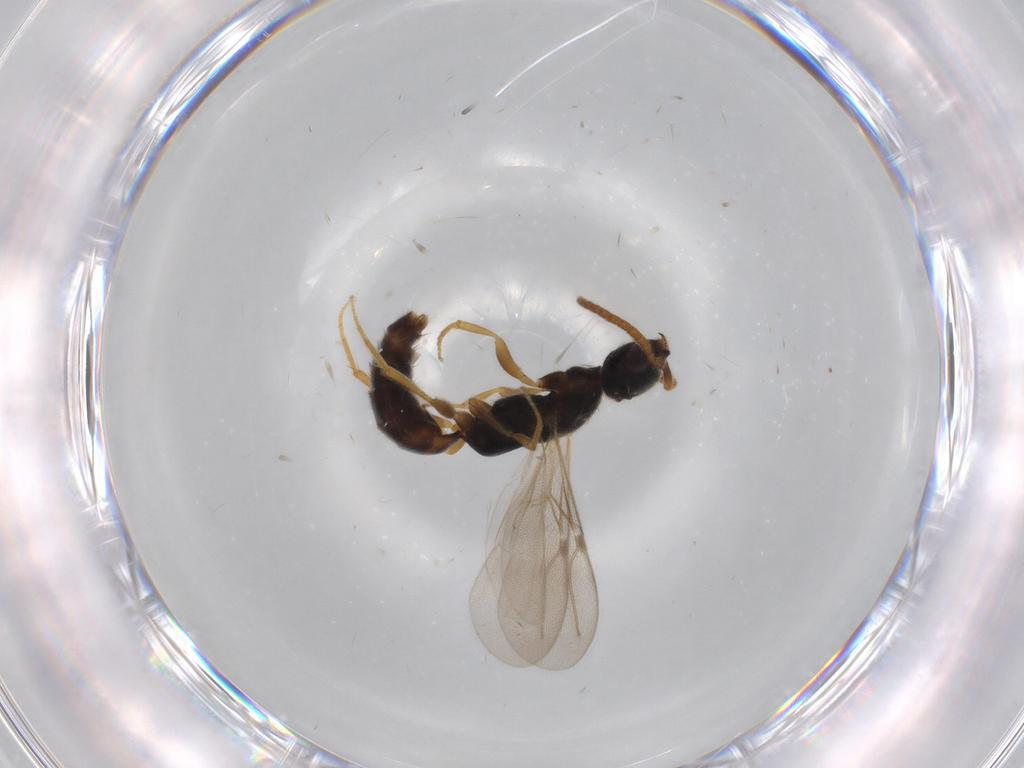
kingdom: Animalia
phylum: Arthropoda
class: Insecta
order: Hymenoptera
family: Bethylidae
